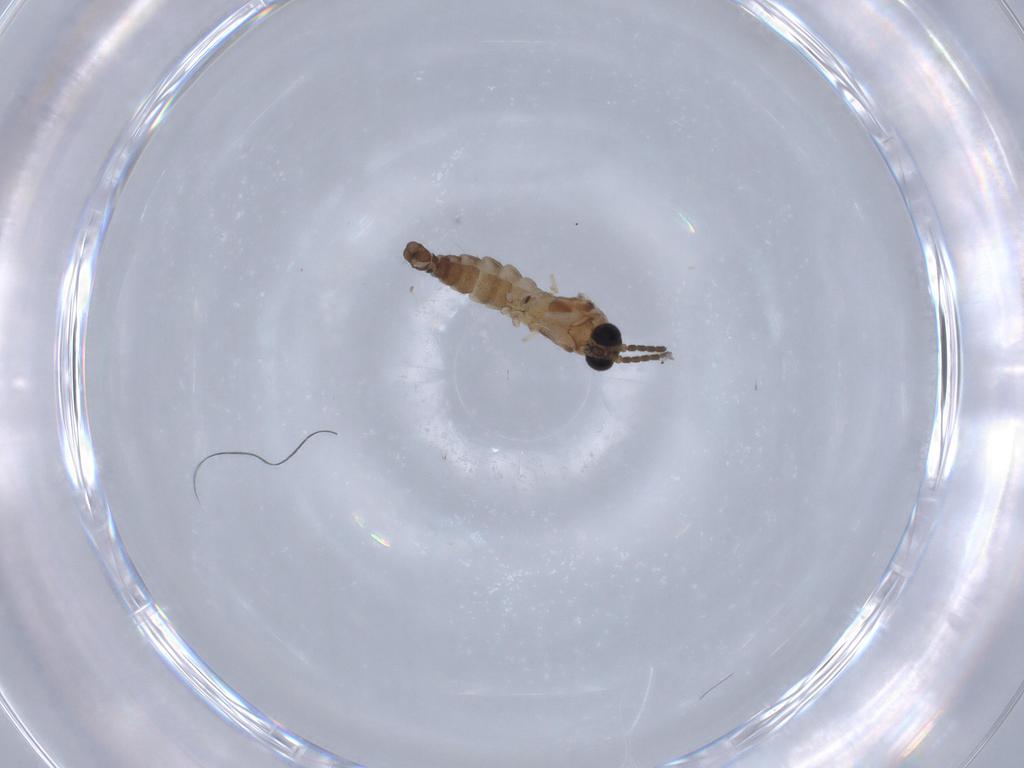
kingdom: Animalia
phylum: Arthropoda
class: Insecta
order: Diptera
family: Sciaridae
